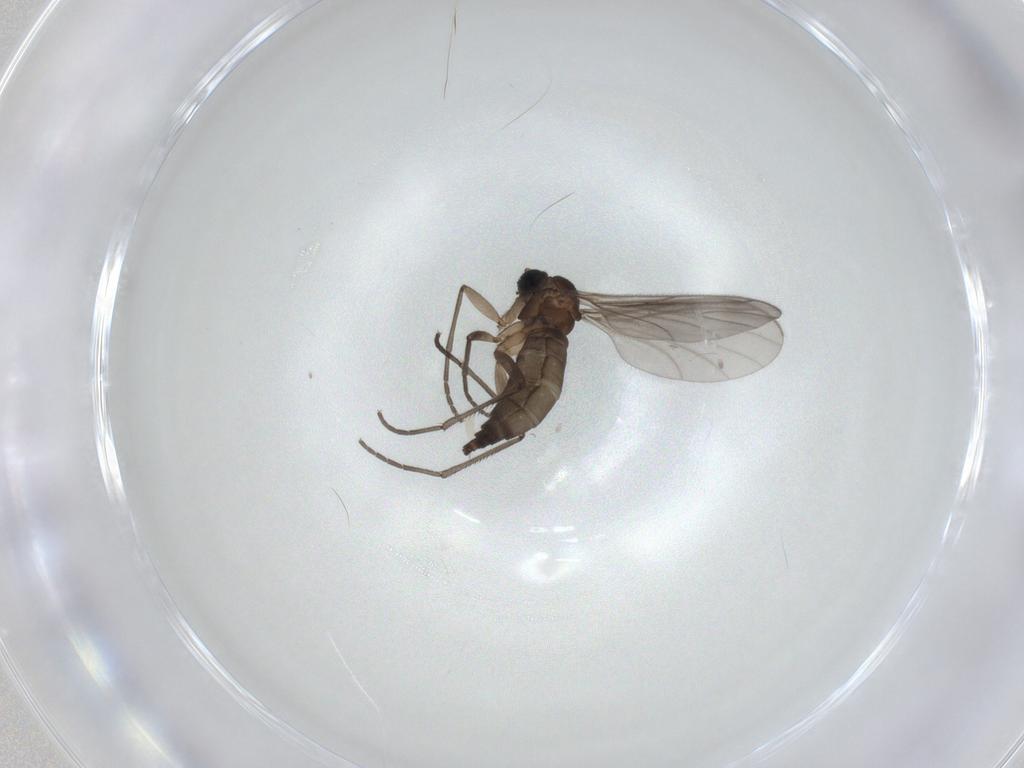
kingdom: Animalia
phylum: Arthropoda
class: Insecta
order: Diptera
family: Sciaridae
